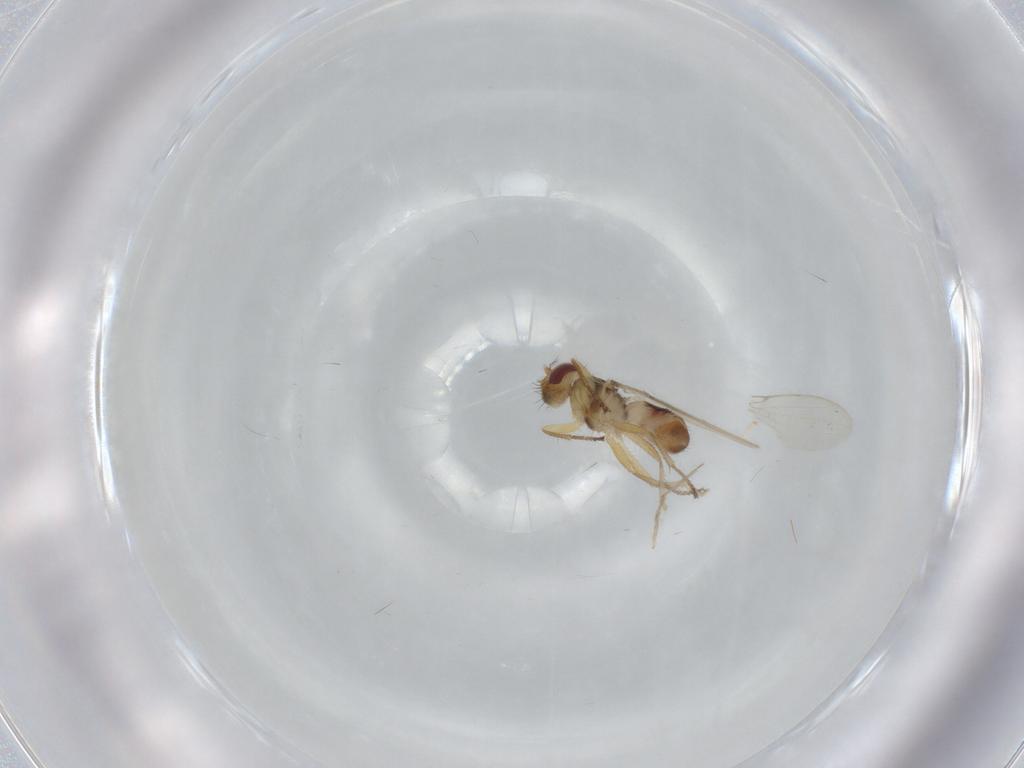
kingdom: Animalia
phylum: Arthropoda
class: Insecta
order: Diptera
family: Periscelididae
